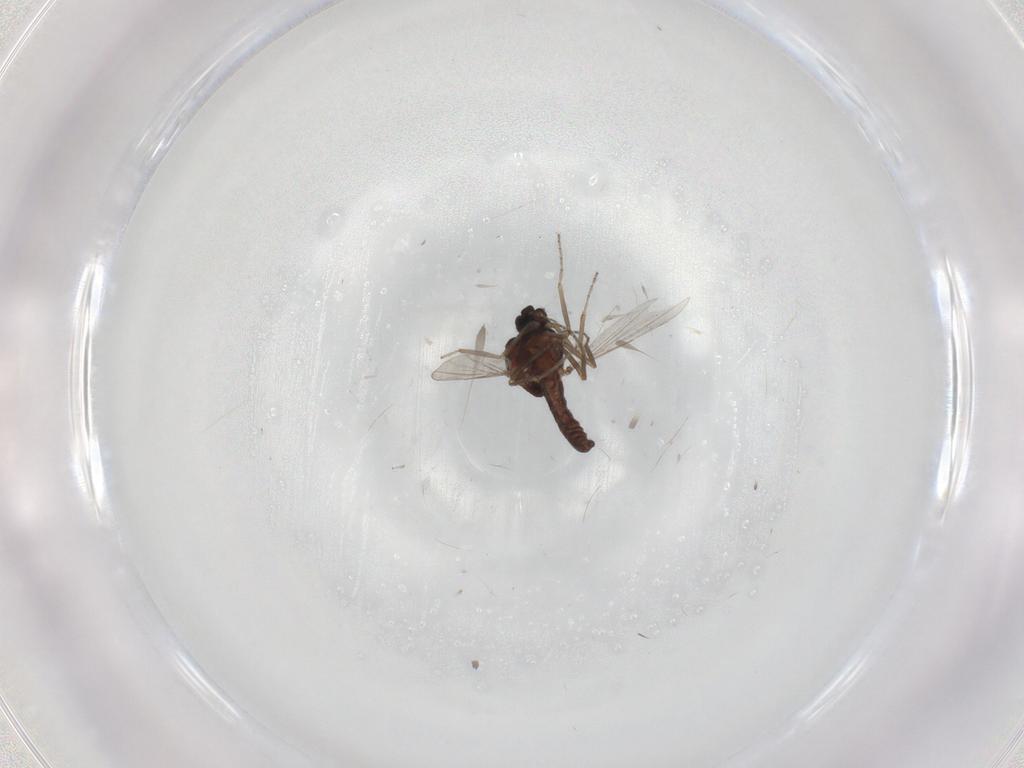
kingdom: Animalia
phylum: Arthropoda
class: Insecta
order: Diptera
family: Ceratopogonidae
